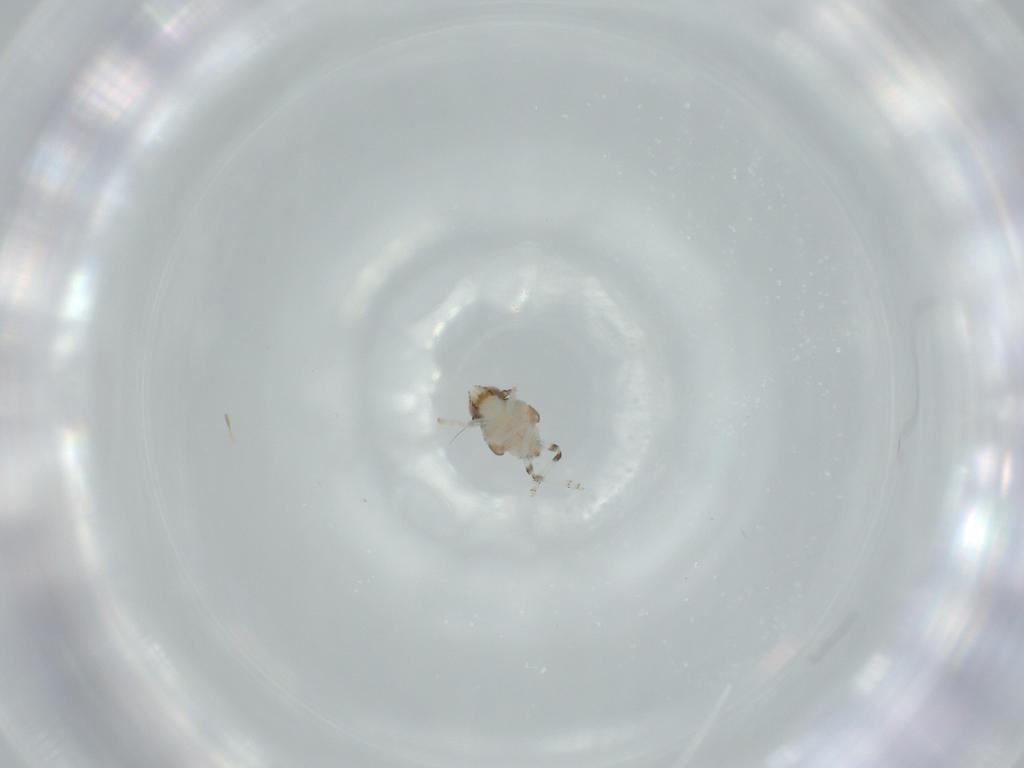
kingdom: Animalia
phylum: Arthropoda
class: Insecta
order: Hemiptera
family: Nogodinidae
